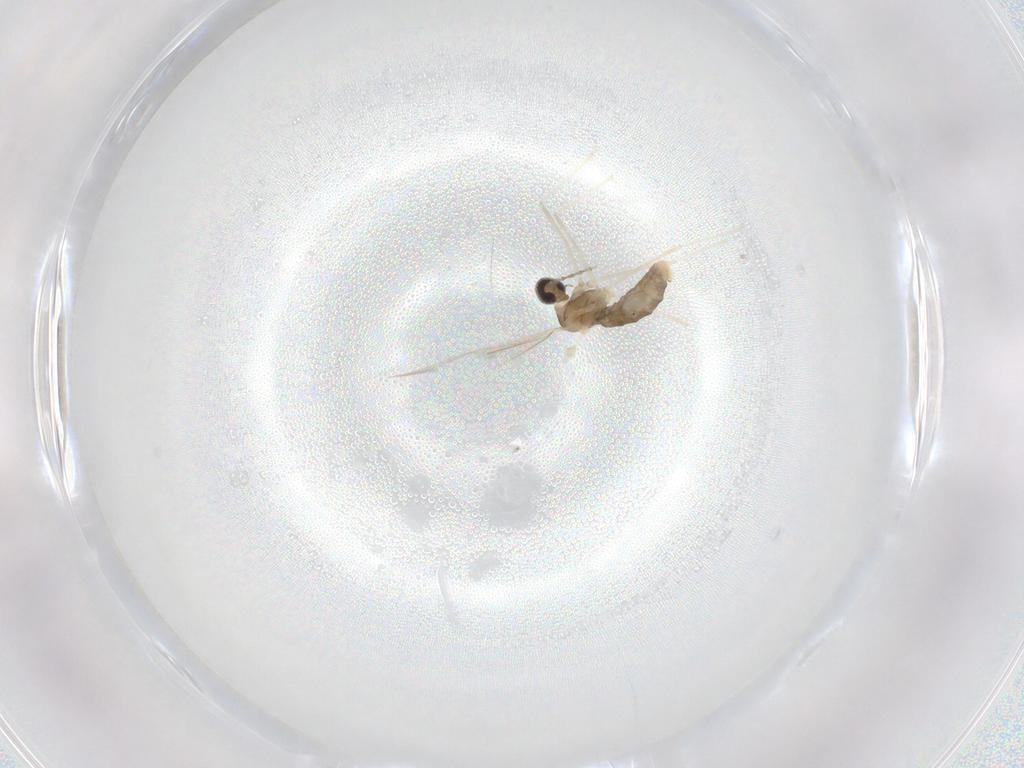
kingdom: Animalia
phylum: Arthropoda
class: Insecta
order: Diptera
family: Cecidomyiidae
